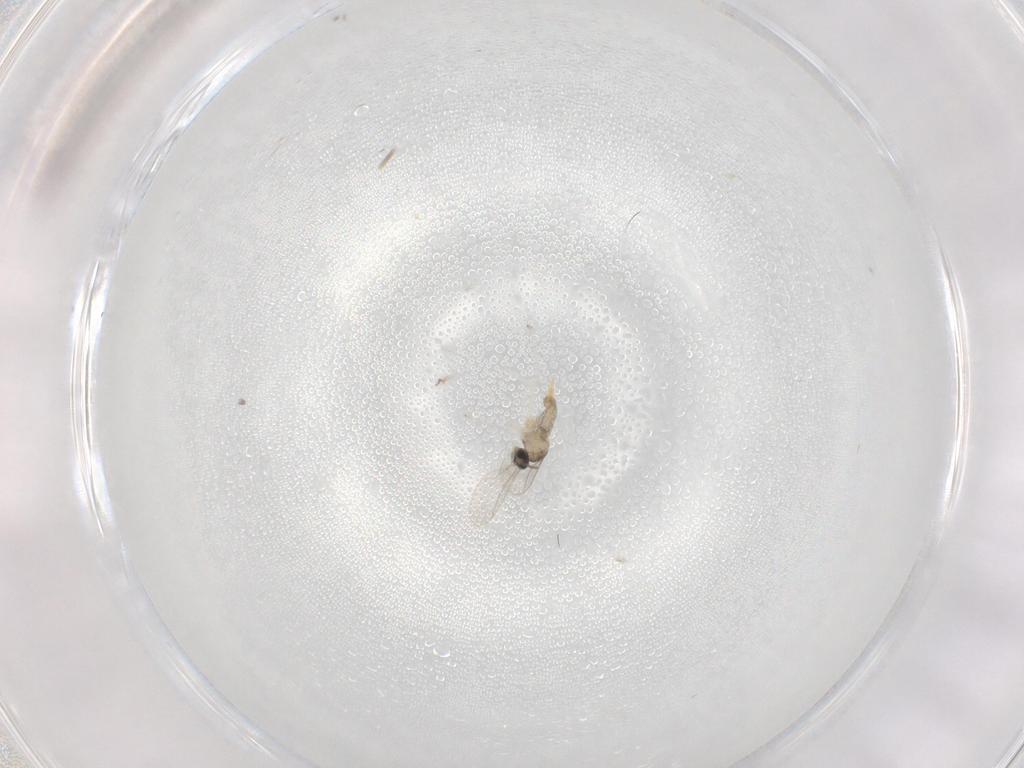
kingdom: Animalia
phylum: Arthropoda
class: Insecta
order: Diptera
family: Cecidomyiidae
